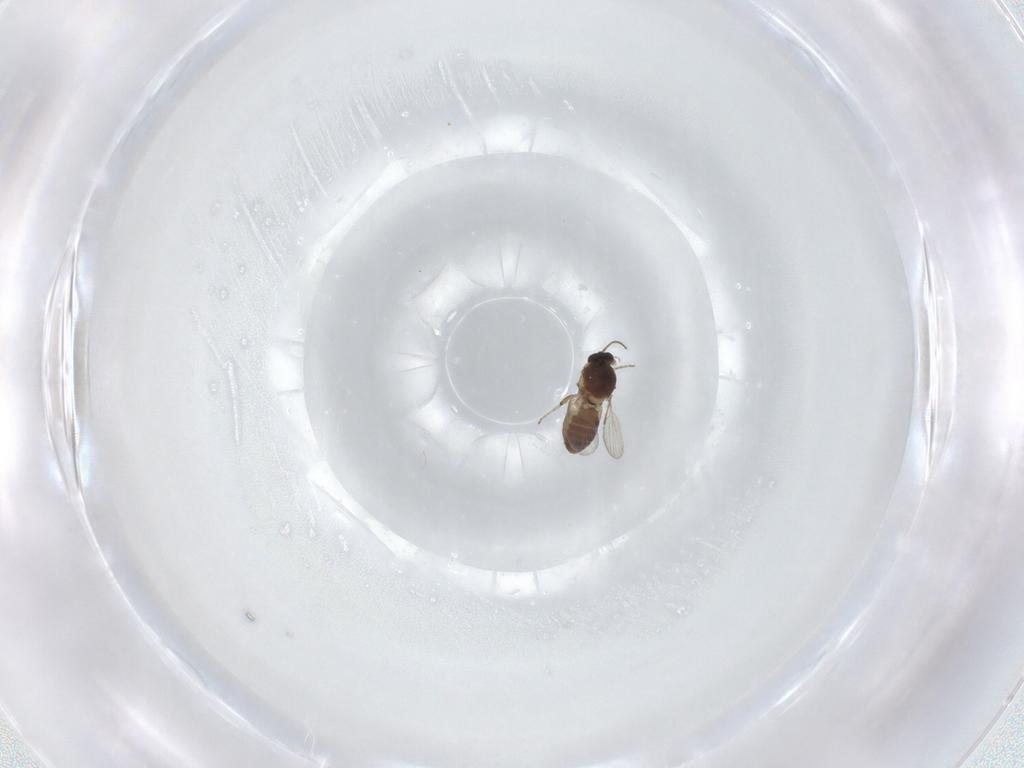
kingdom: Animalia
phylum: Arthropoda
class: Insecta
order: Diptera
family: Ceratopogonidae
